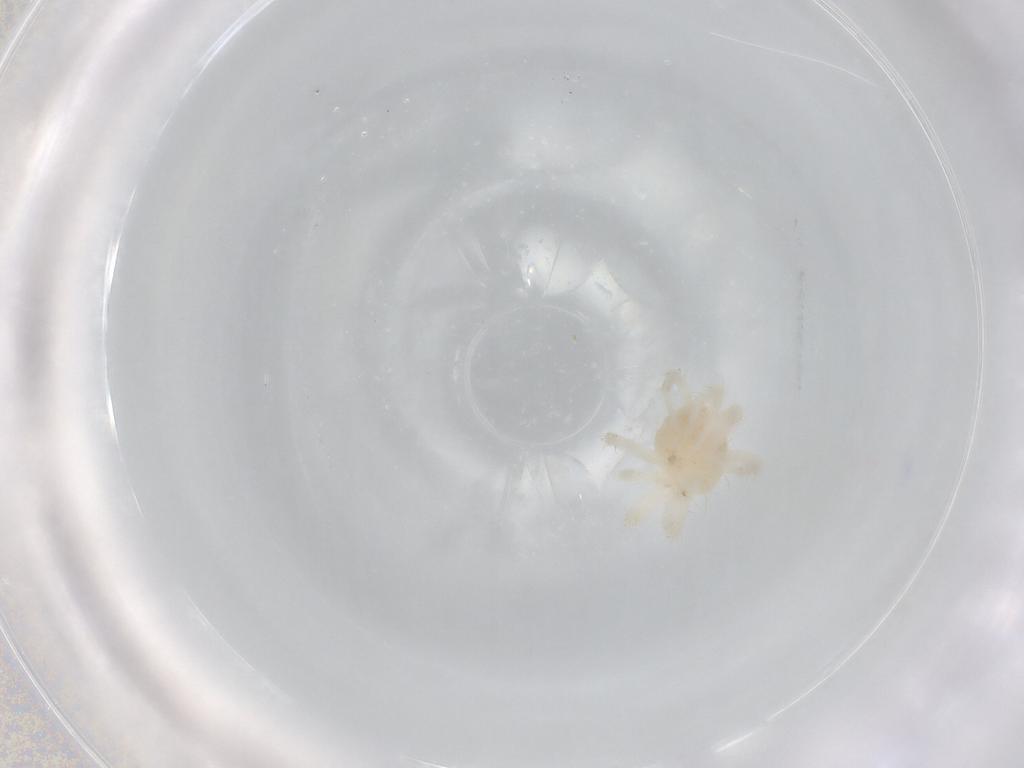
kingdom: Animalia
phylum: Arthropoda
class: Arachnida
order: Trombidiformes
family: Anystidae
